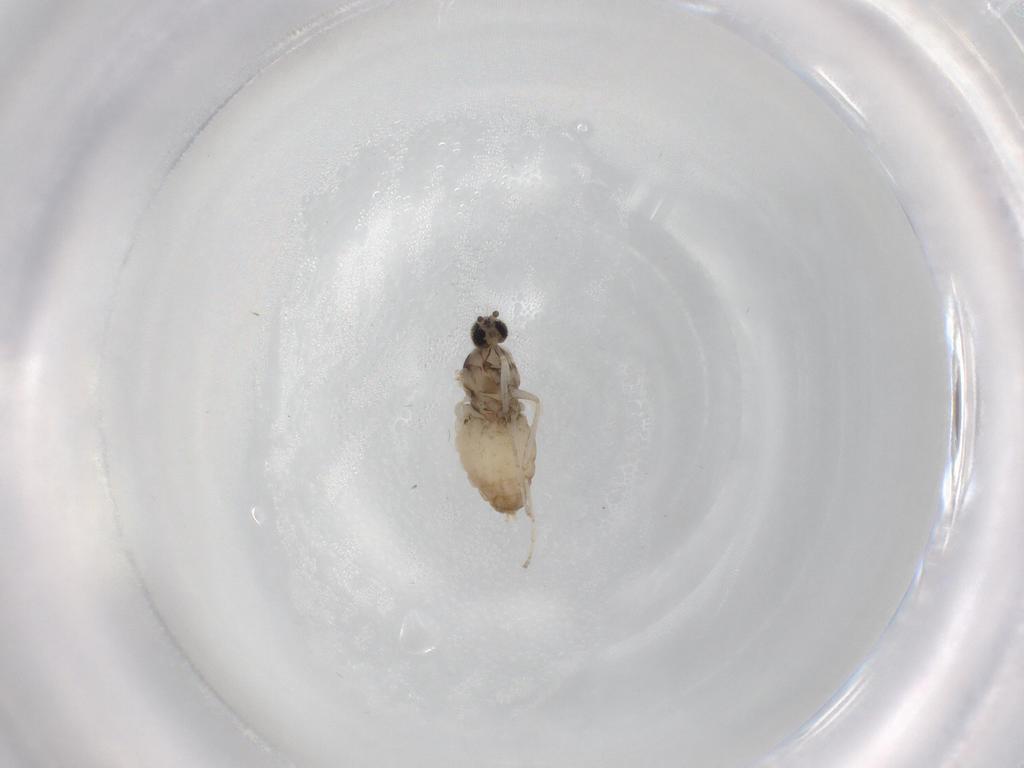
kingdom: Animalia
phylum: Arthropoda
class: Insecta
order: Diptera
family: Cecidomyiidae
